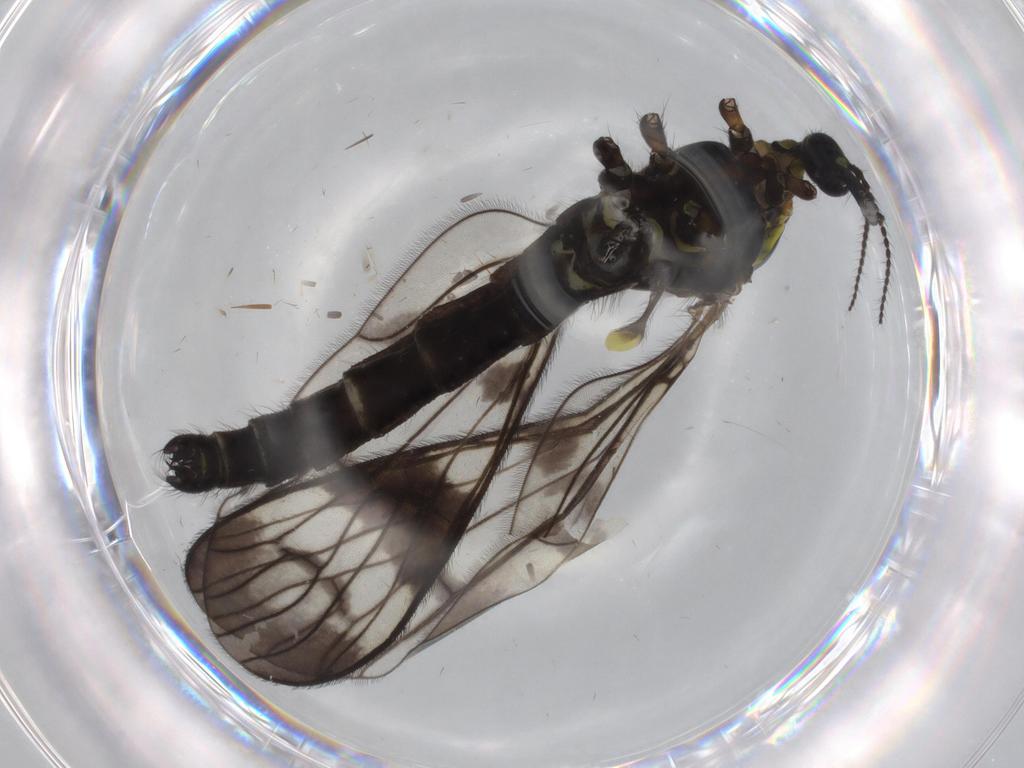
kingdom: Animalia
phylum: Arthropoda
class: Insecta
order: Diptera
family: Limoniidae
